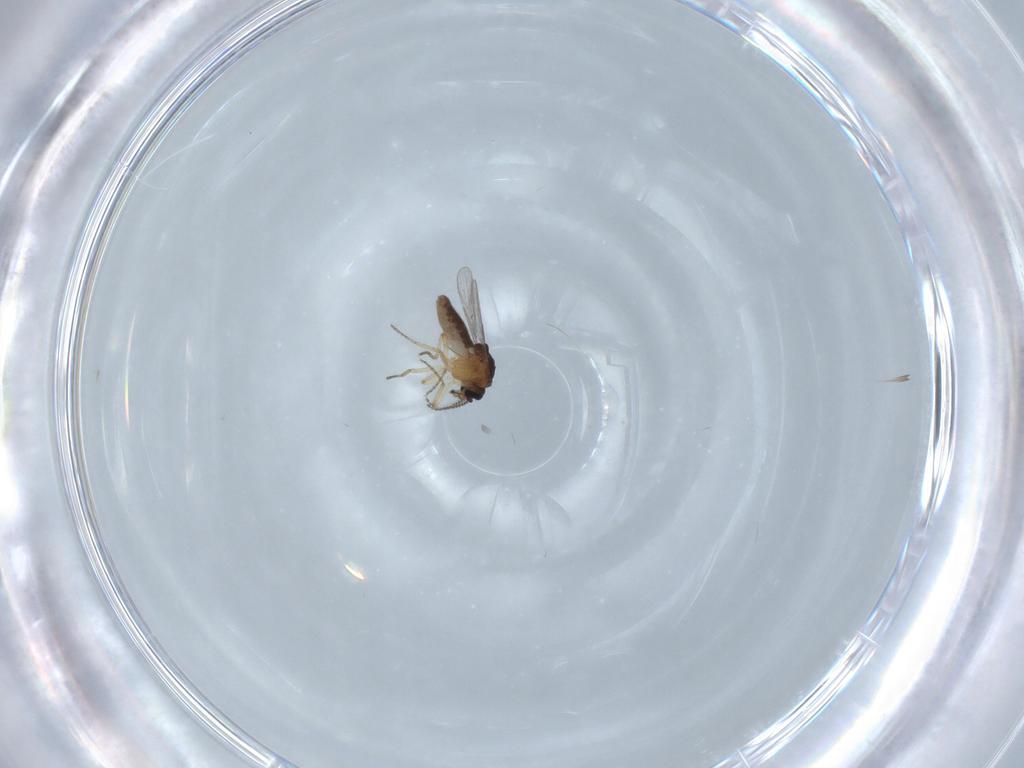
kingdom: Animalia
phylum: Arthropoda
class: Insecta
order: Diptera
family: Ceratopogonidae
